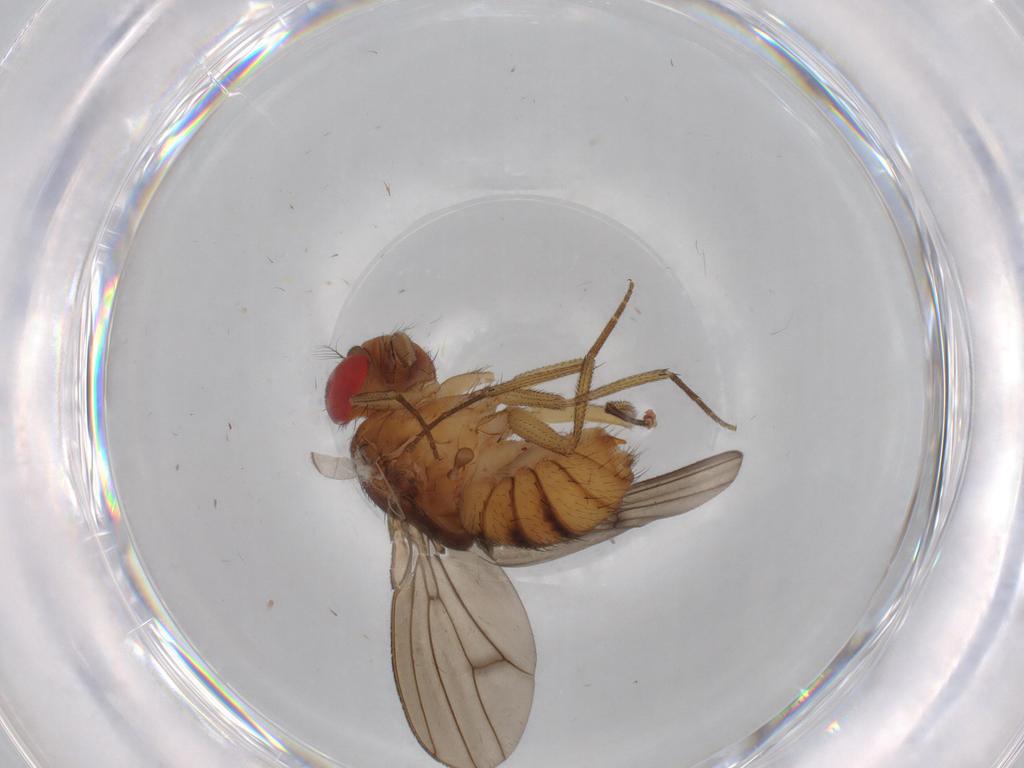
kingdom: Animalia
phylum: Arthropoda
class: Insecta
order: Diptera
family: Drosophilidae
